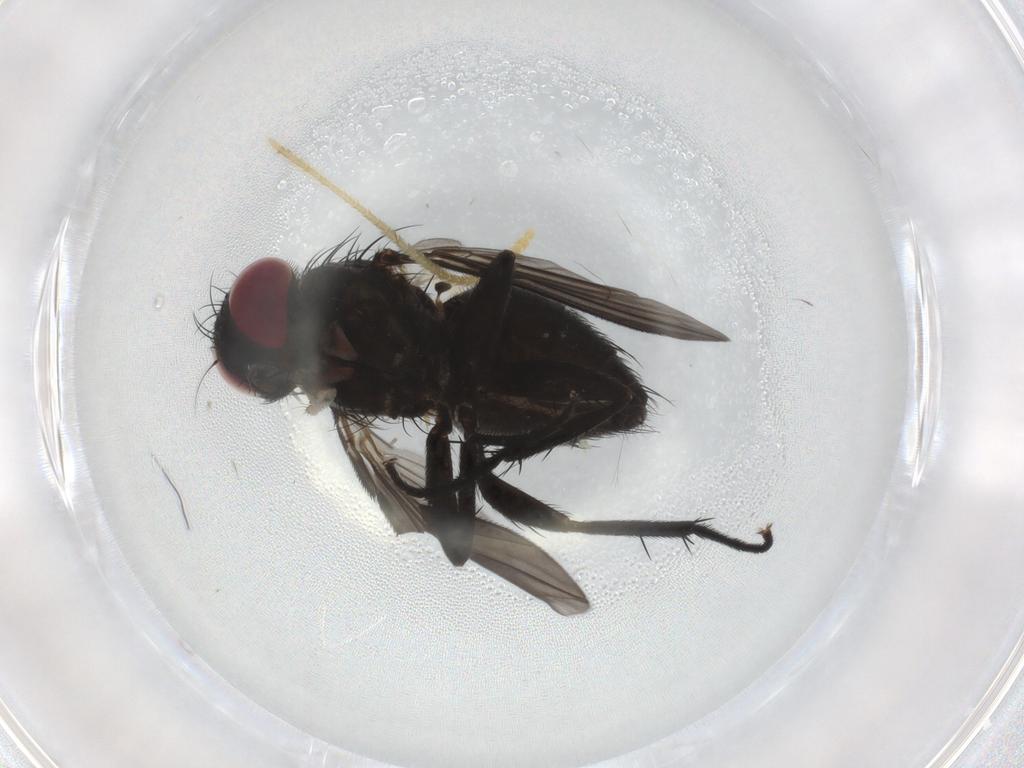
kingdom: Animalia
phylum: Arthropoda
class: Insecta
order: Diptera
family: Calliphoridae
